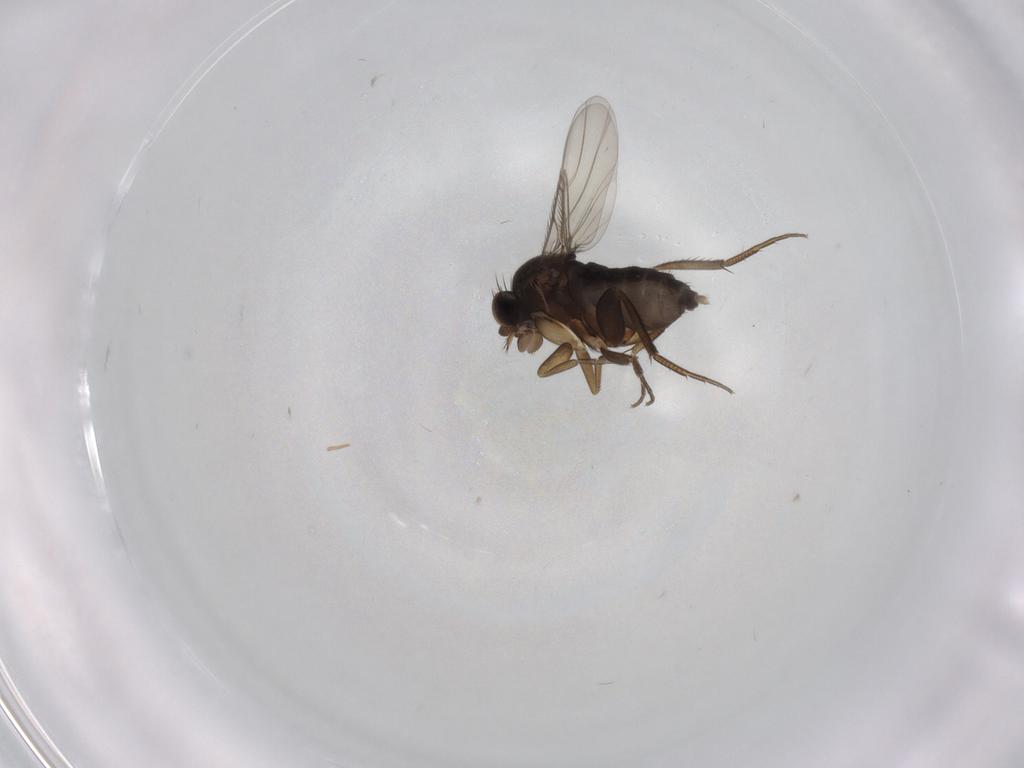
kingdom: Animalia
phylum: Arthropoda
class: Insecta
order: Diptera
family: Phoridae
